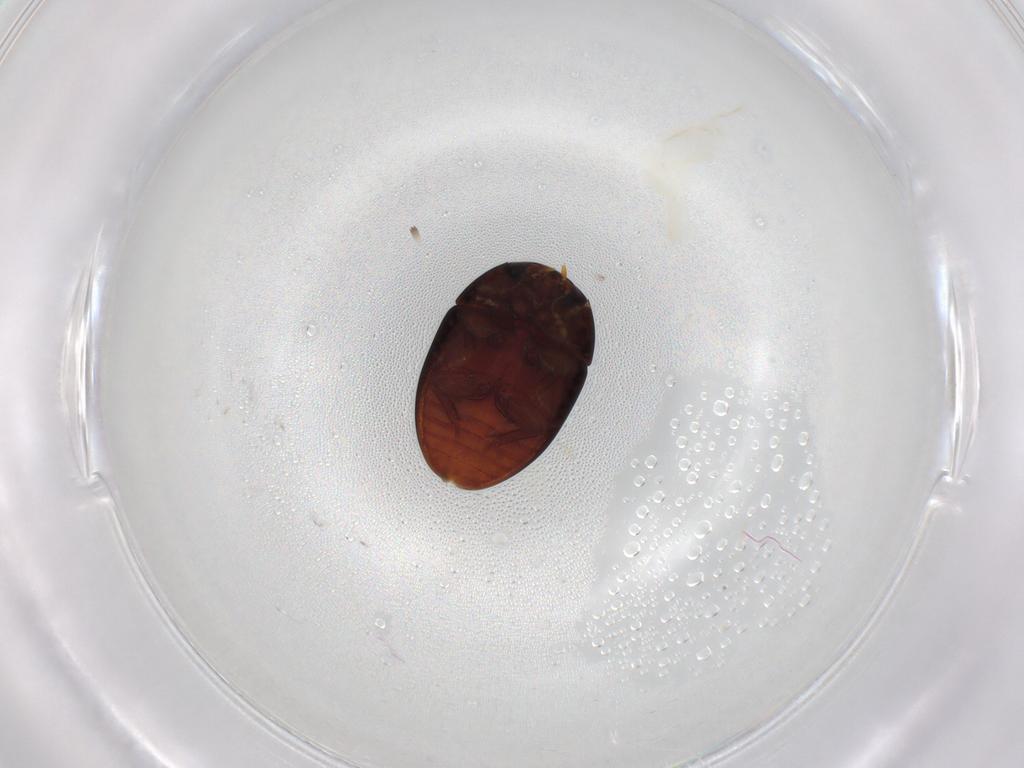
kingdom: Animalia
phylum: Arthropoda
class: Insecta
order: Coleoptera
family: Phalacridae
